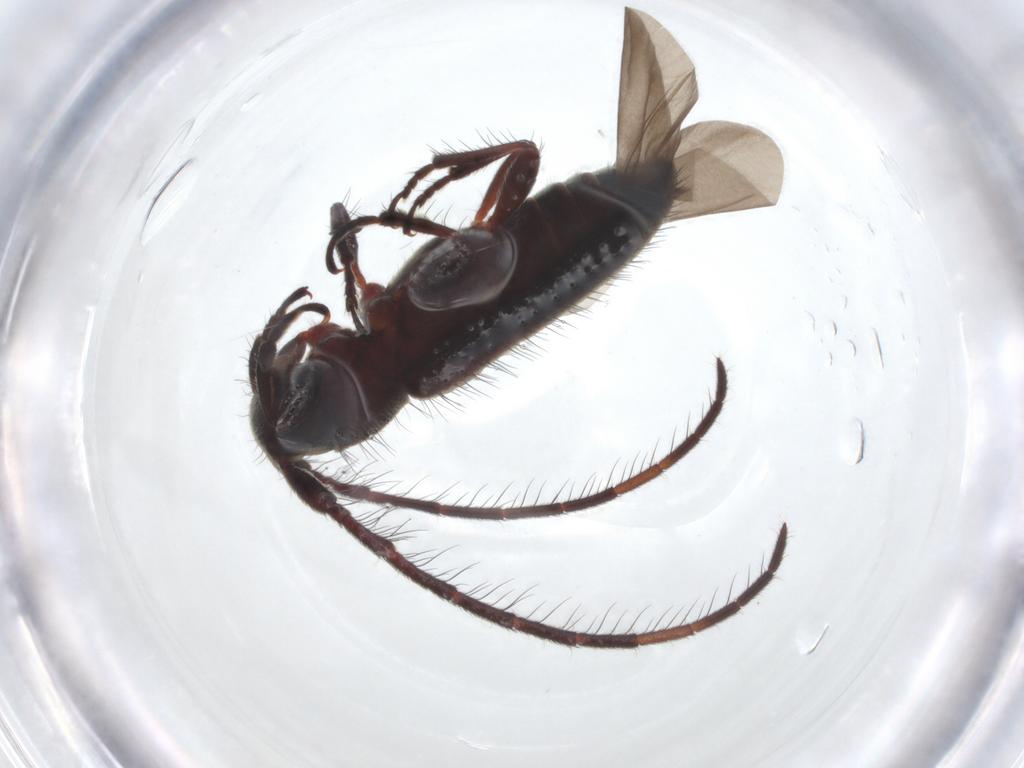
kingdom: Animalia
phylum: Arthropoda
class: Insecta
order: Coleoptera
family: Cerambycidae
